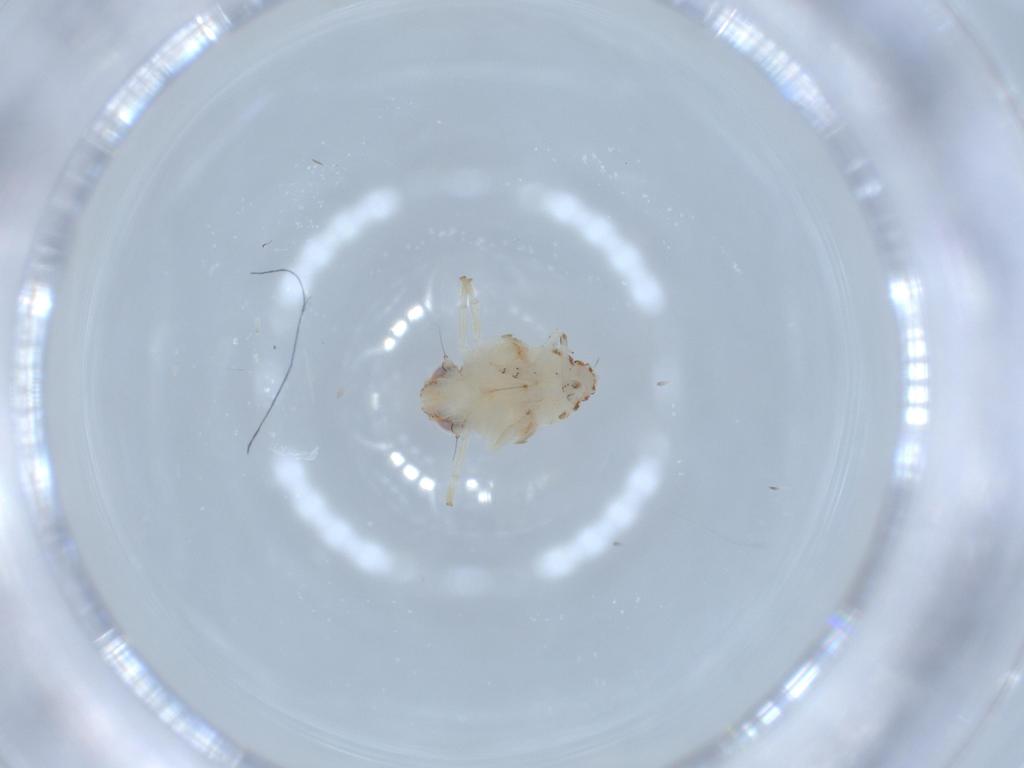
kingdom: Animalia
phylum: Arthropoda
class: Insecta
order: Hemiptera
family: Nogodinidae
